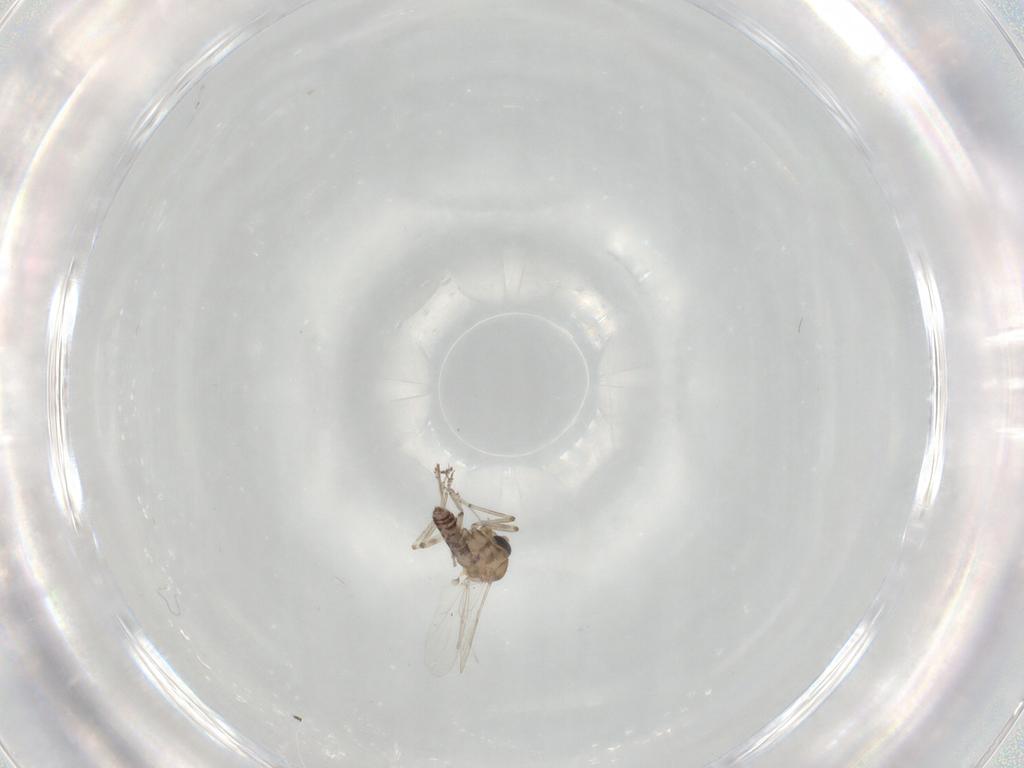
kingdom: Animalia
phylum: Arthropoda
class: Insecta
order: Diptera
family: Ceratopogonidae
